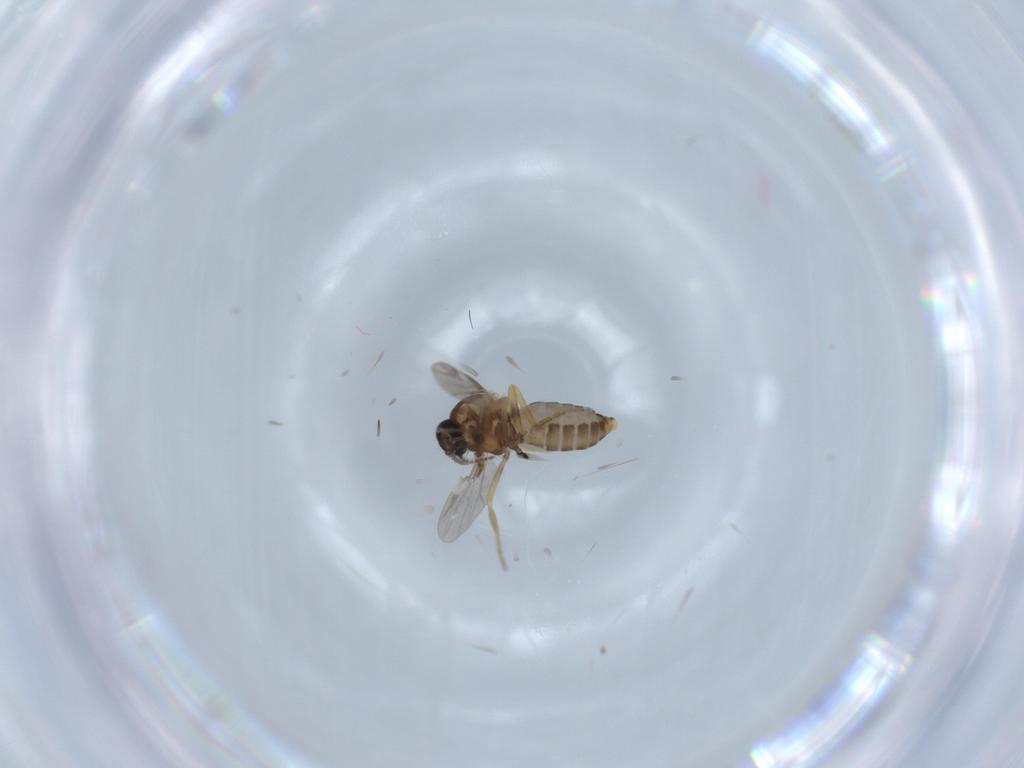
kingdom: Animalia
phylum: Arthropoda
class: Insecta
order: Diptera
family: Ceratopogonidae
